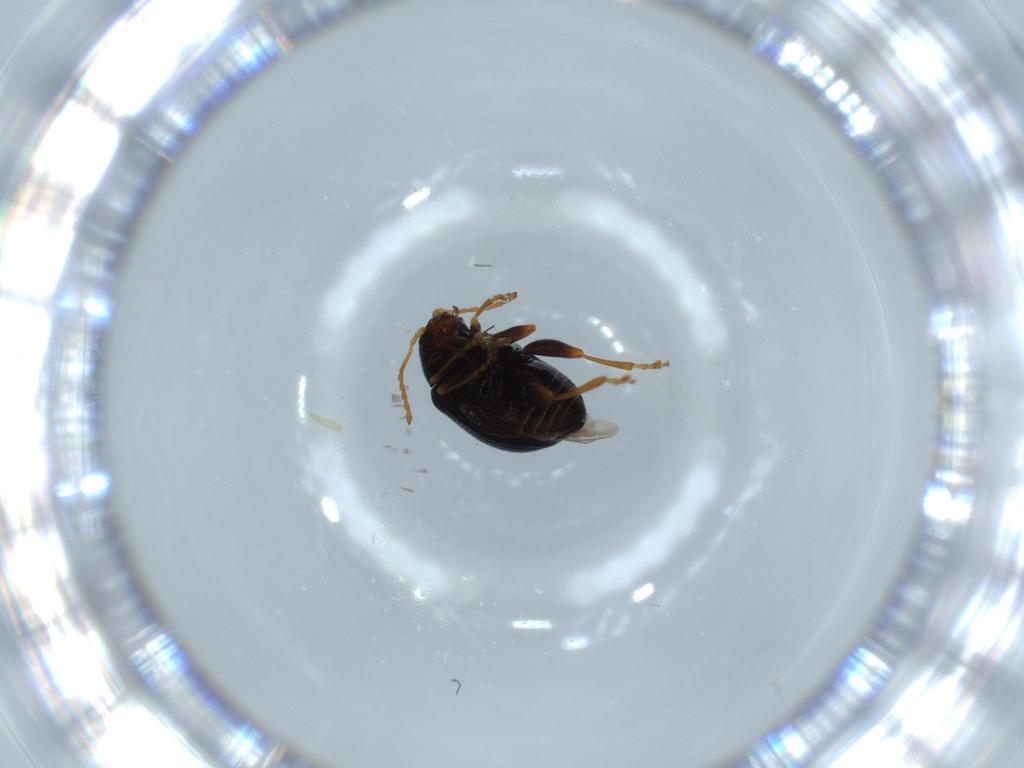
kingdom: Animalia
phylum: Arthropoda
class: Insecta
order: Coleoptera
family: Chrysomelidae
